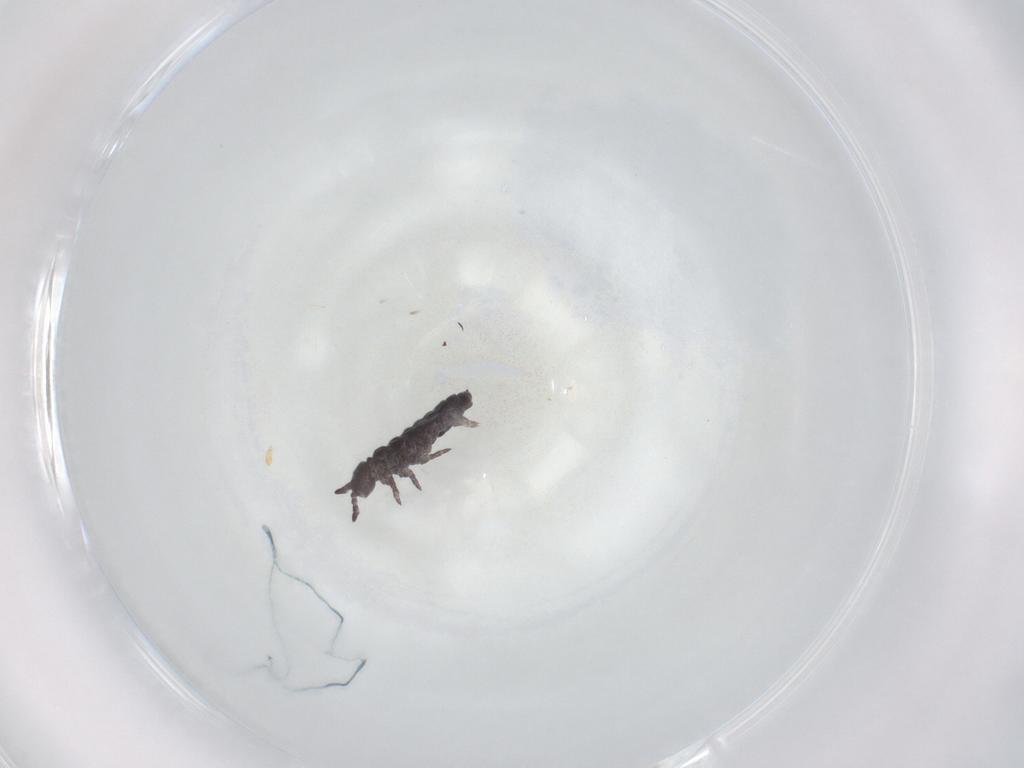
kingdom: Animalia
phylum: Arthropoda
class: Collembola
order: Poduromorpha
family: Hypogastruridae
